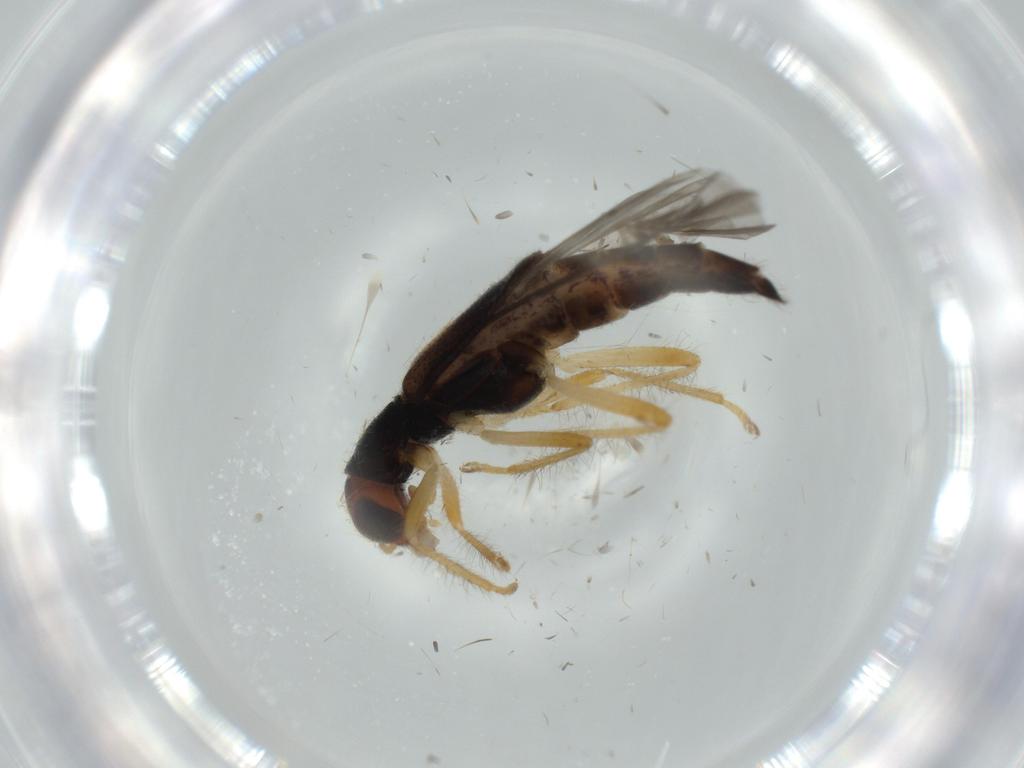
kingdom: Animalia
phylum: Arthropoda
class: Insecta
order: Coleoptera
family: Cleridae
